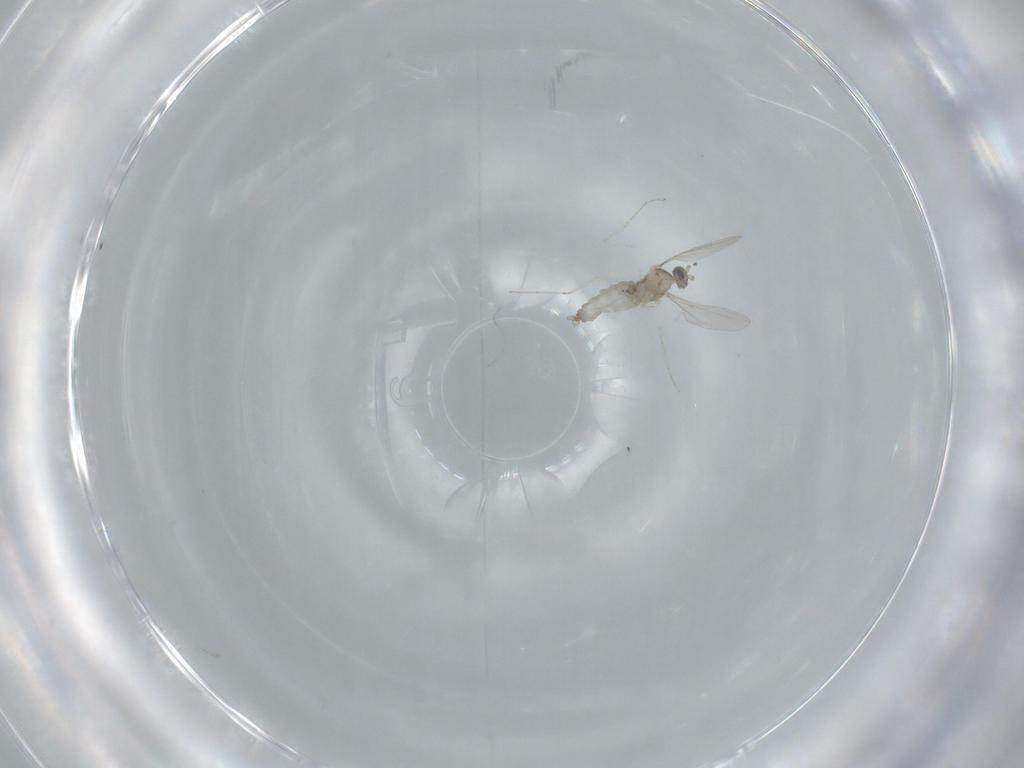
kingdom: Animalia
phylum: Arthropoda
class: Insecta
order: Diptera
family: Cecidomyiidae
